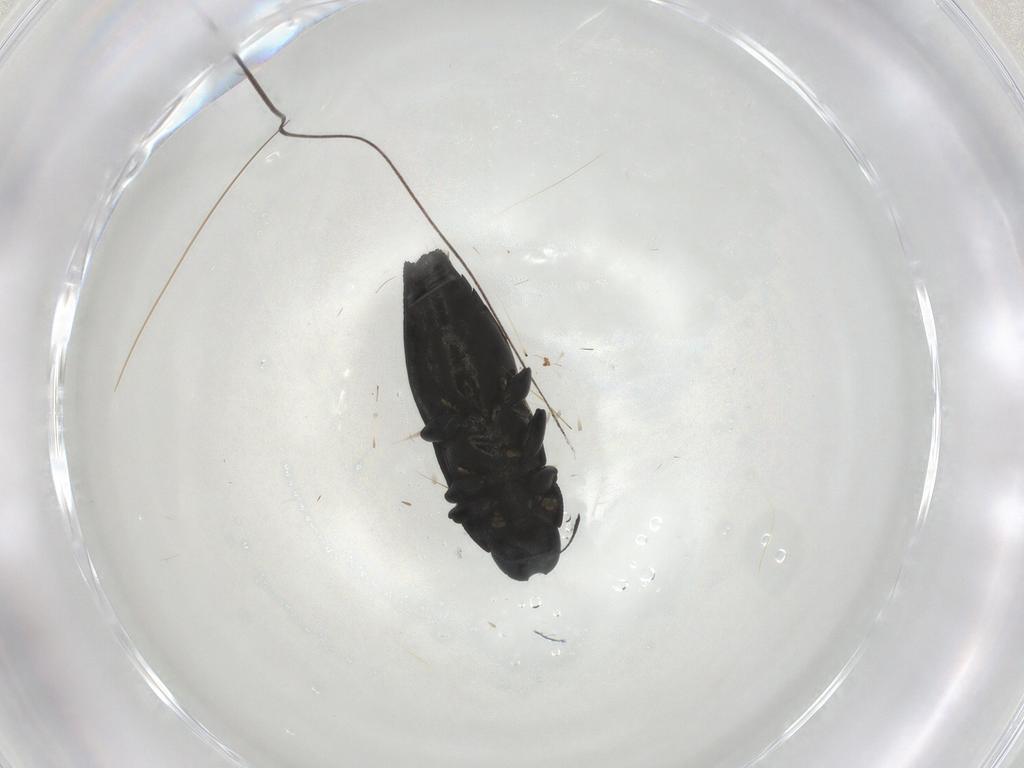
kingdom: Animalia
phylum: Arthropoda
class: Insecta
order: Coleoptera
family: Buprestidae
